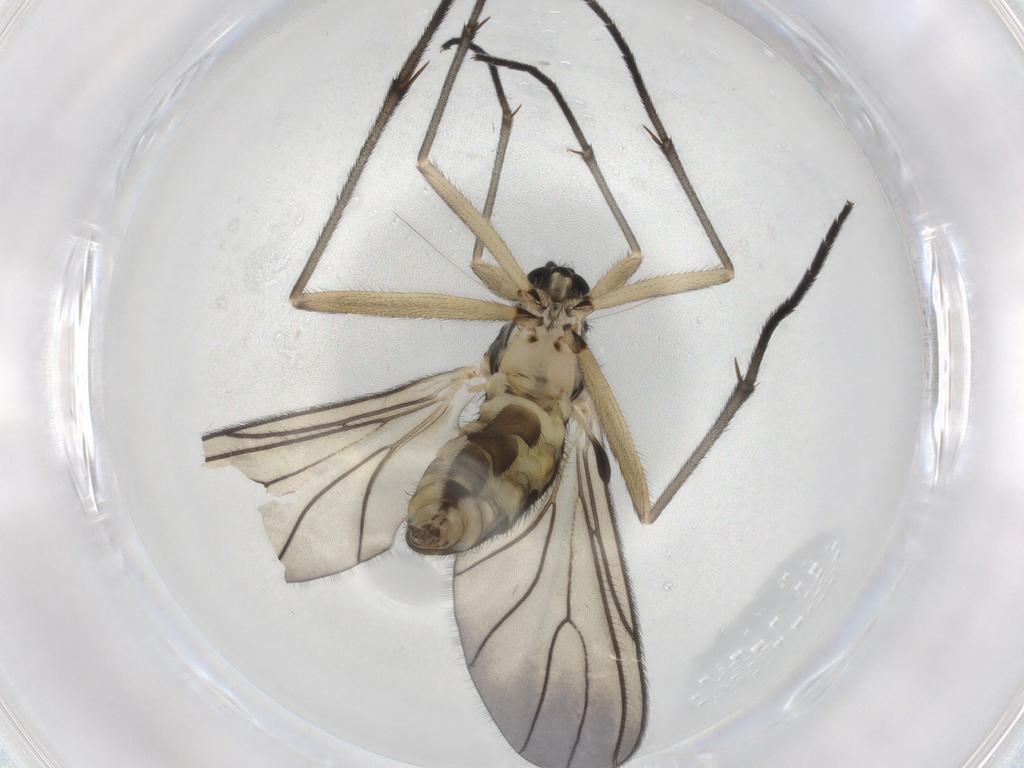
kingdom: Animalia
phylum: Arthropoda
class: Insecta
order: Diptera
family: Sciaridae
